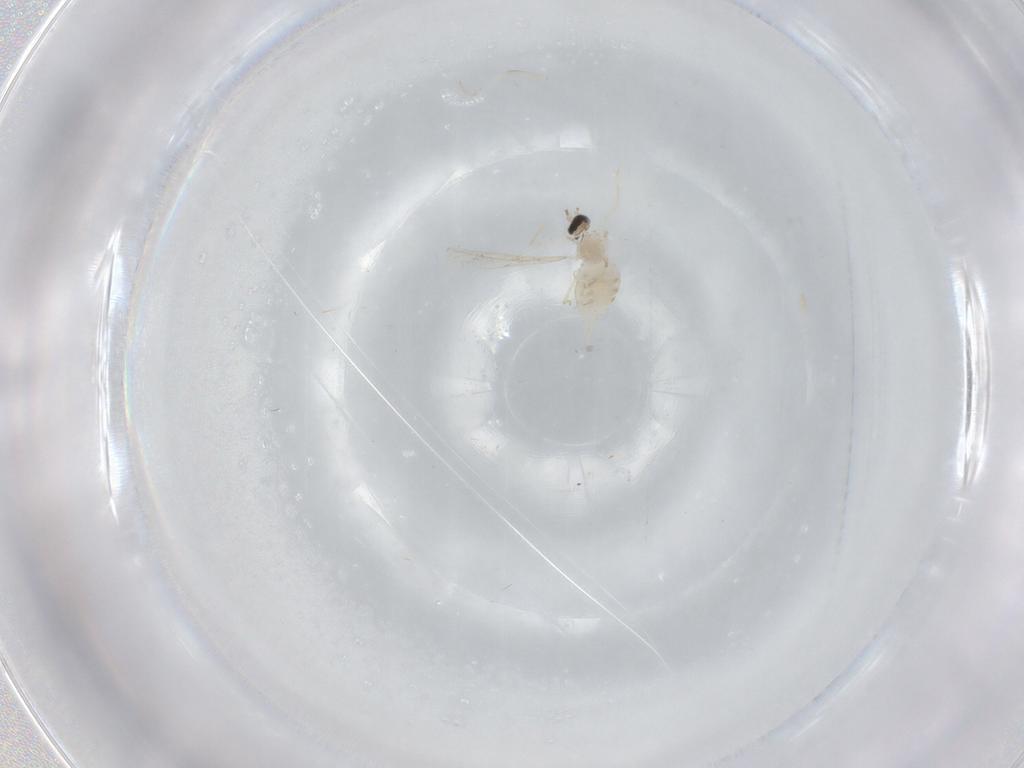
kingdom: Animalia
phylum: Arthropoda
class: Insecta
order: Diptera
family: Cecidomyiidae
